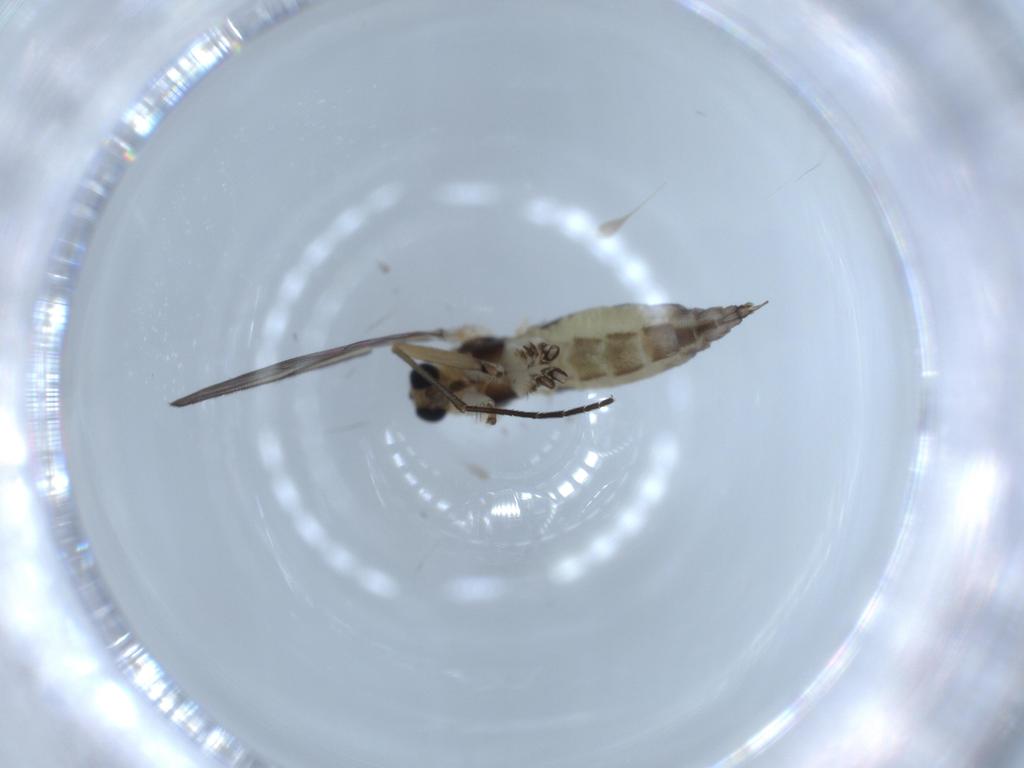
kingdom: Animalia
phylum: Arthropoda
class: Insecta
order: Diptera
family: Sciaridae
